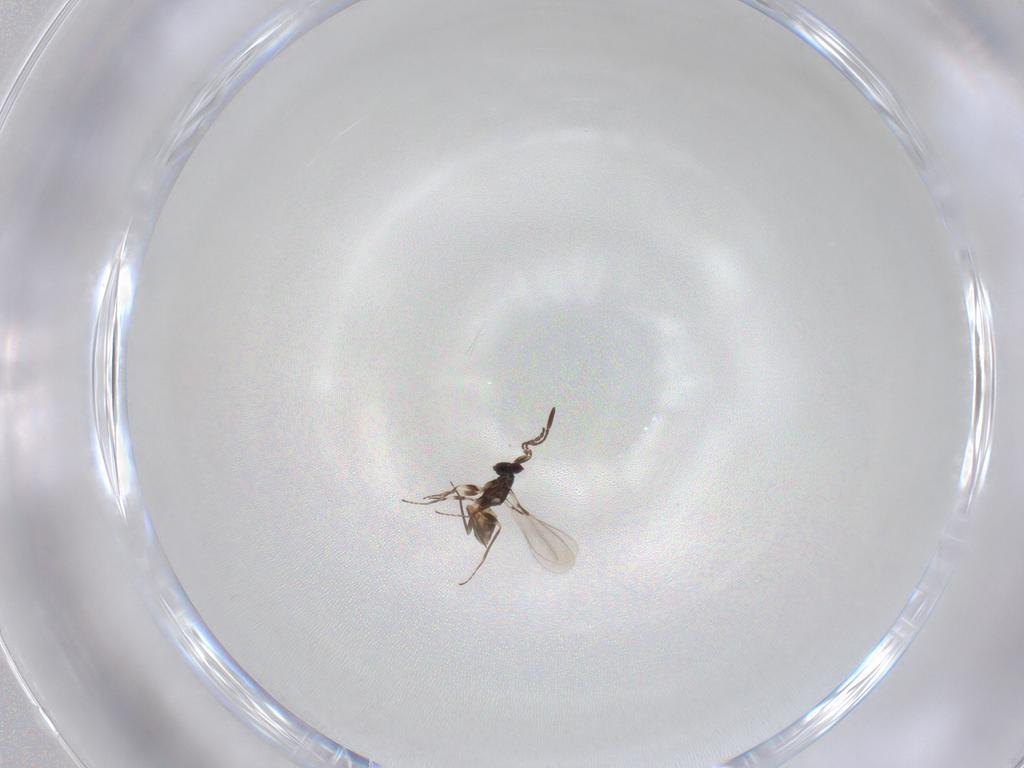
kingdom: Animalia
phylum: Arthropoda
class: Insecta
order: Hymenoptera
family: Mymaridae
